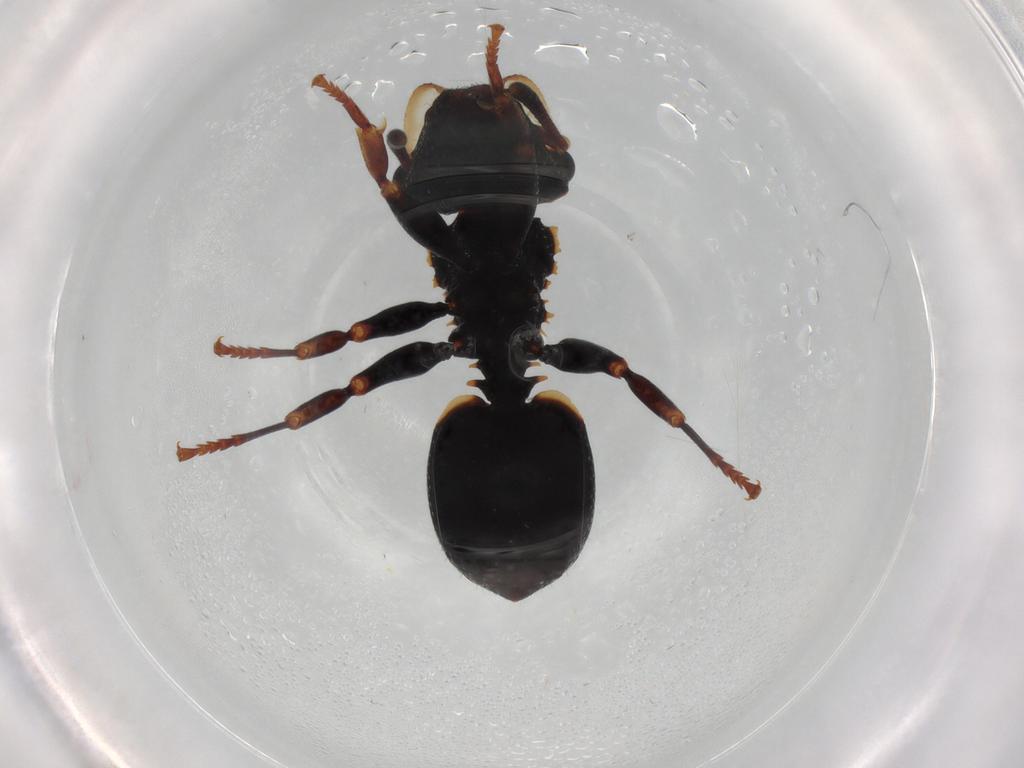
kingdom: Animalia
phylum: Arthropoda
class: Insecta
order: Hymenoptera
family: Formicidae
